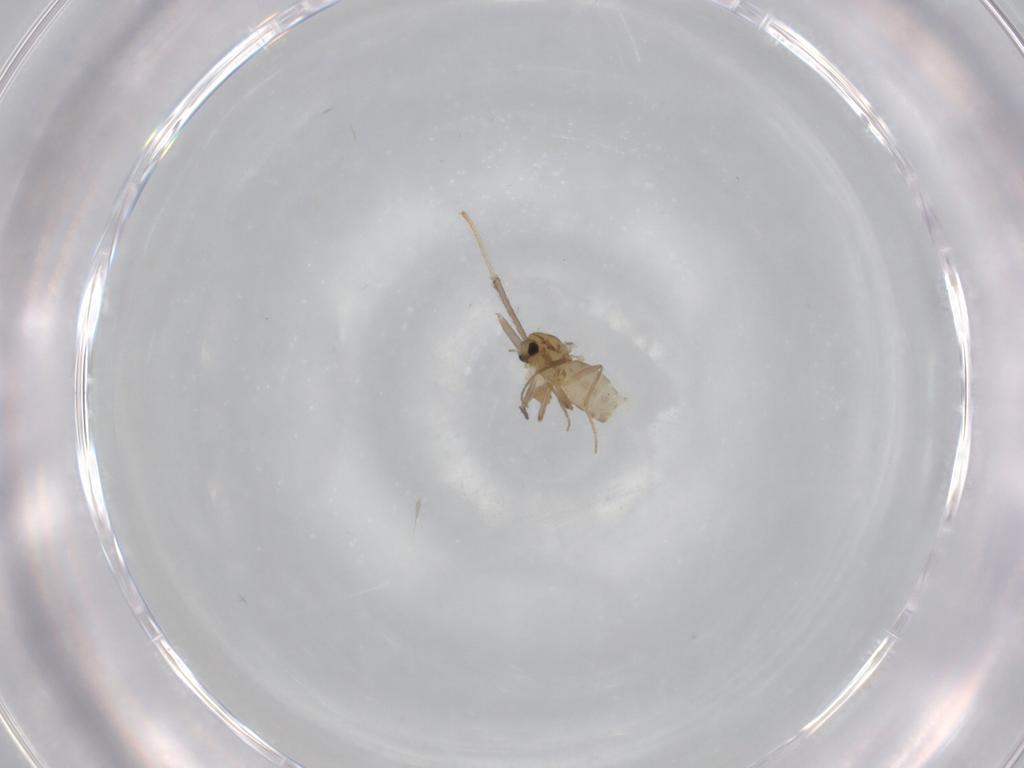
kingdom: Animalia
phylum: Arthropoda
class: Insecta
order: Diptera
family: Chironomidae
